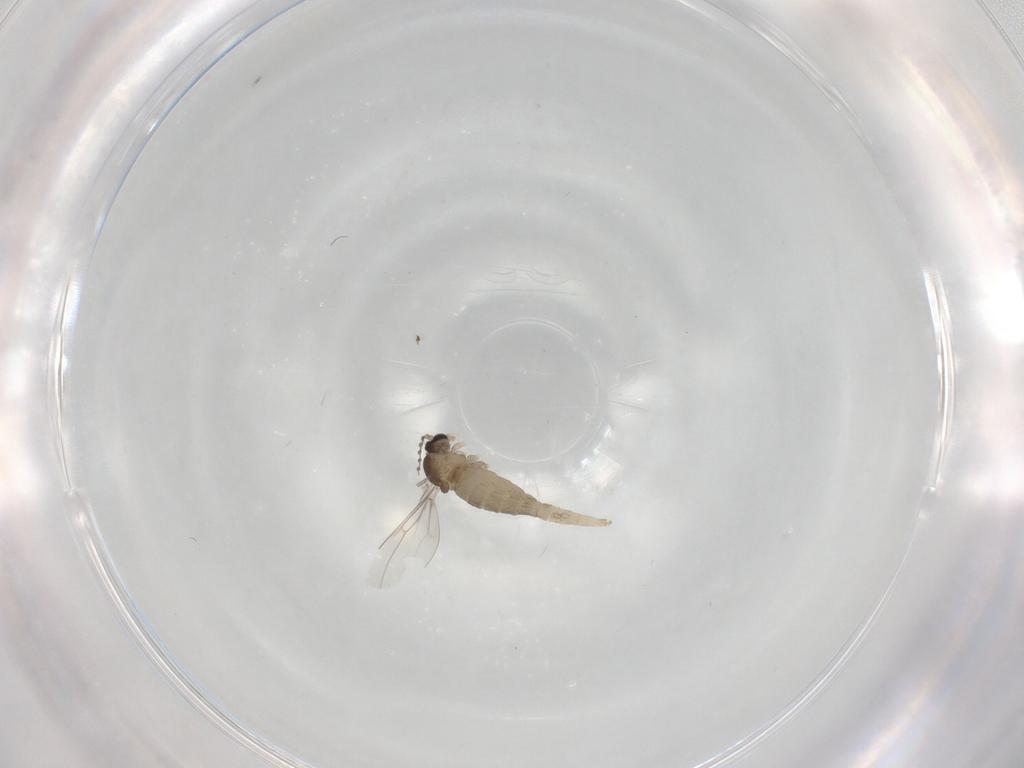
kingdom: Animalia
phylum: Arthropoda
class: Insecta
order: Diptera
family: Cecidomyiidae
